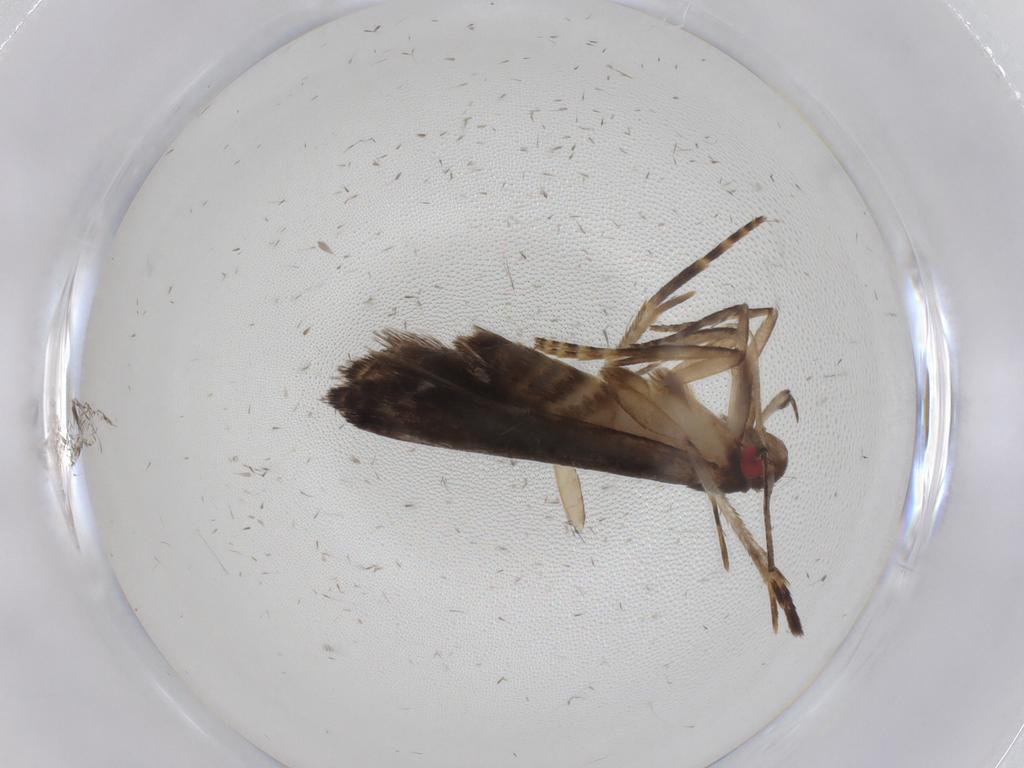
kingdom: Animalia
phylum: Arthropoda
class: Insecta
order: Lepidoptera
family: Gelechiidae
